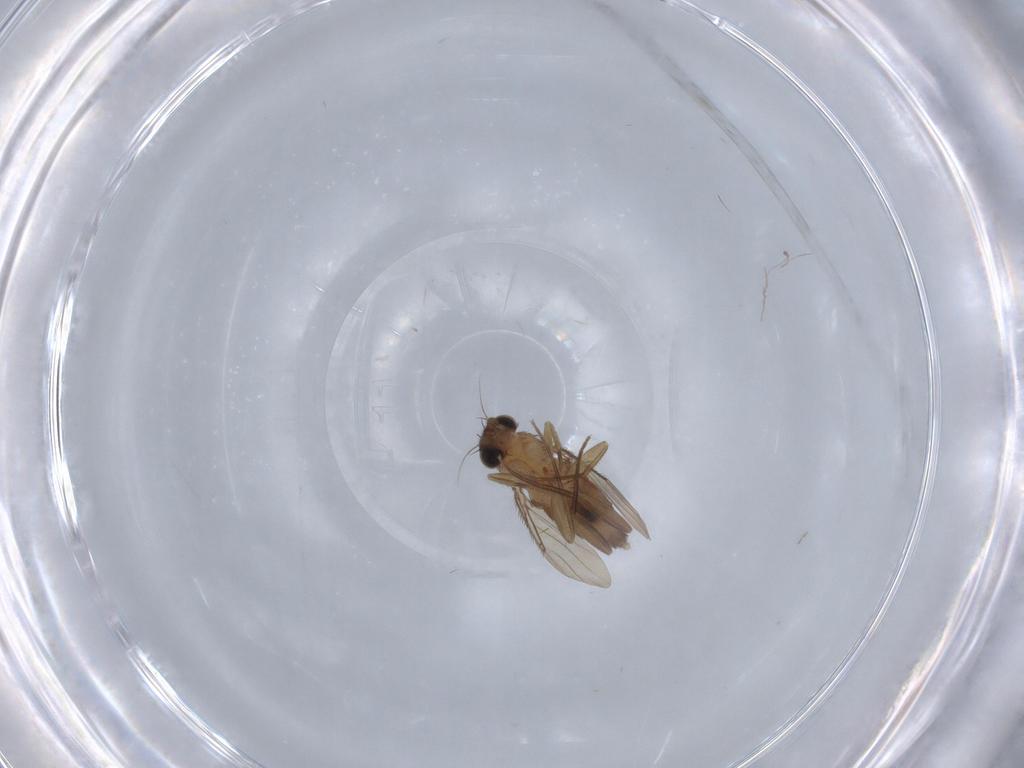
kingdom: Animalia
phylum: Arthropoda
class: Insecta
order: Diptera
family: Phoridae
